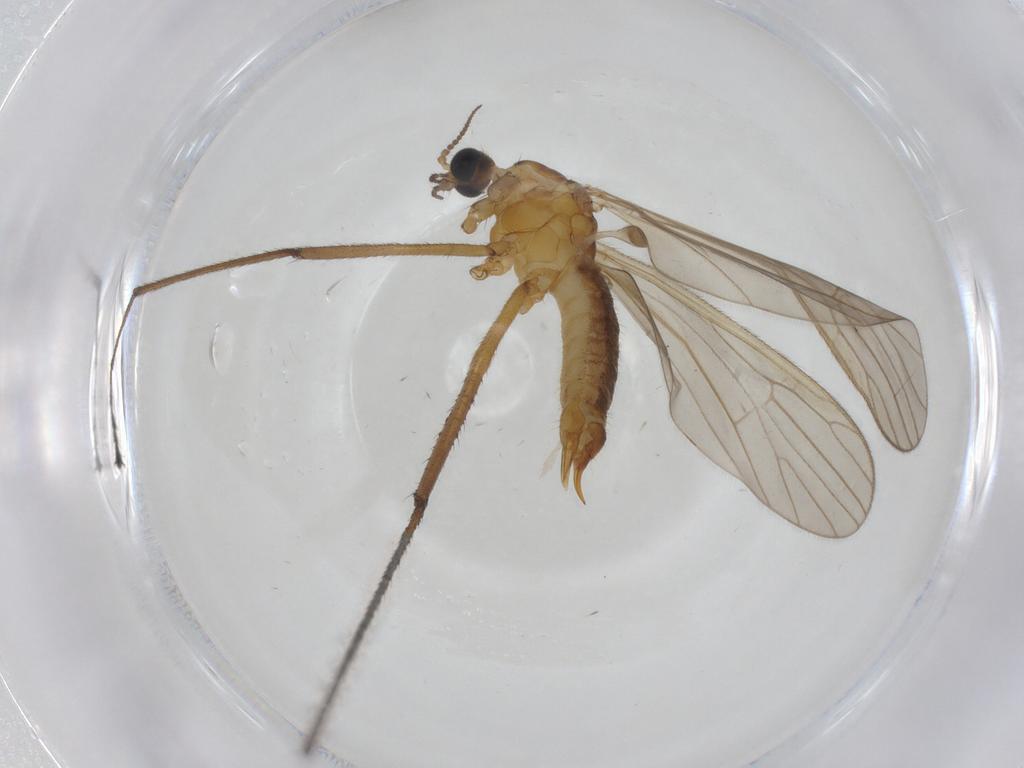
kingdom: Animalia
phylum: Arthropoda
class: Insecta
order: Diptera
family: Limoniidae
